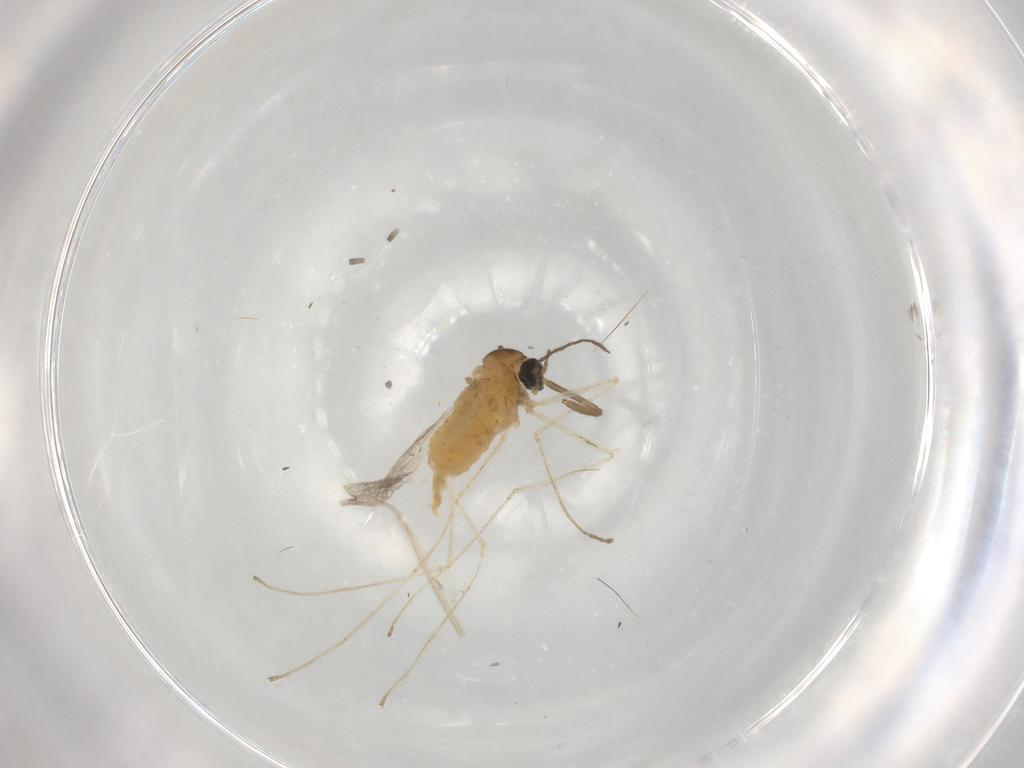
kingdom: Animalia
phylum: Arthropoda
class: Insecta
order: Diptera
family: Cecidomyiidae
